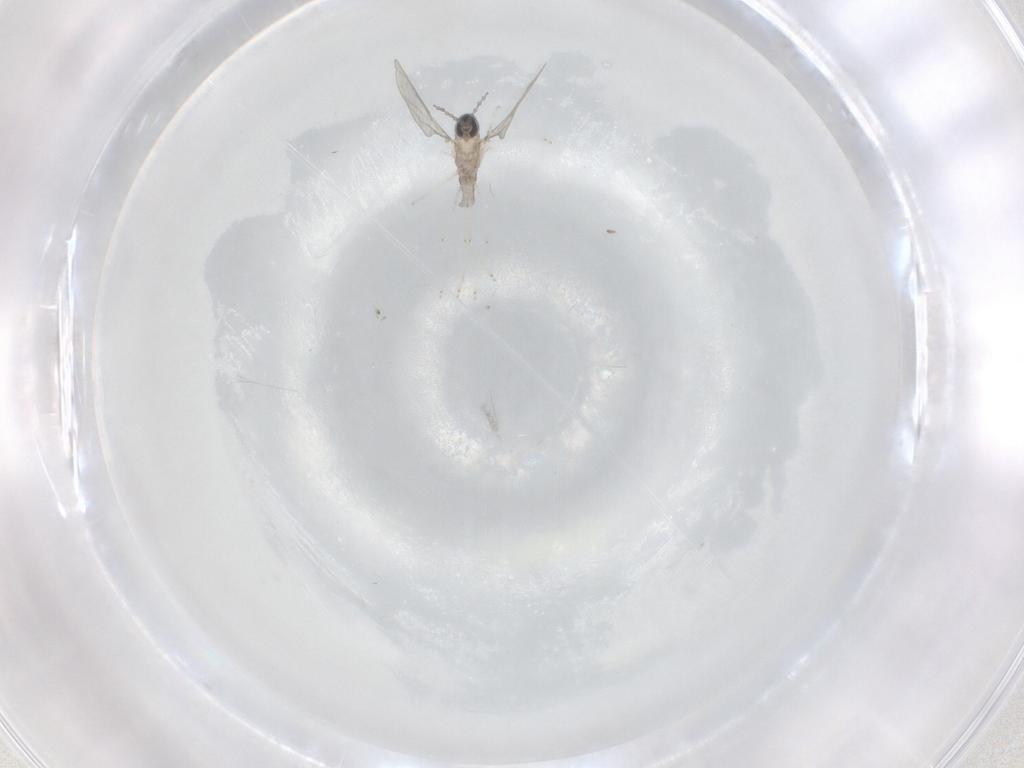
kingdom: Animalia
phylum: Arthropoda
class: Insecta
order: Diptera
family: Cecidomyiidae
